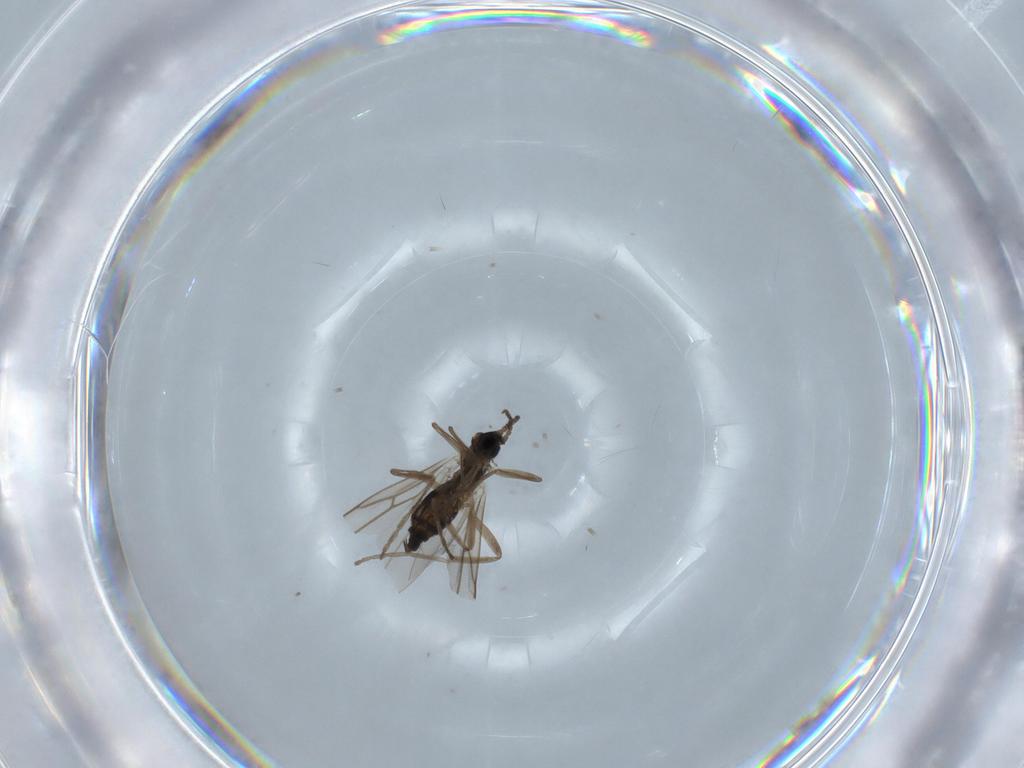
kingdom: Animalia
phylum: Arthropoda
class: Insecta
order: Diptera
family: Cecidomyiidae
